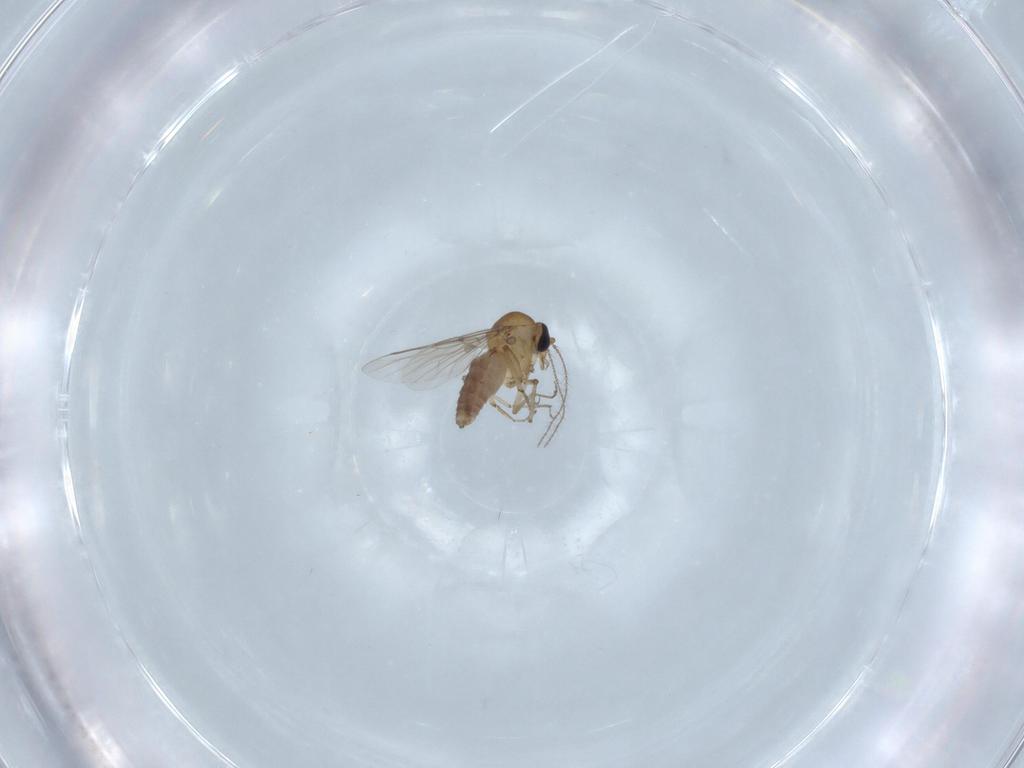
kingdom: Animalia
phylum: Arthropoda
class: Insecta
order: Diptera
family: Ceratopogonidae
